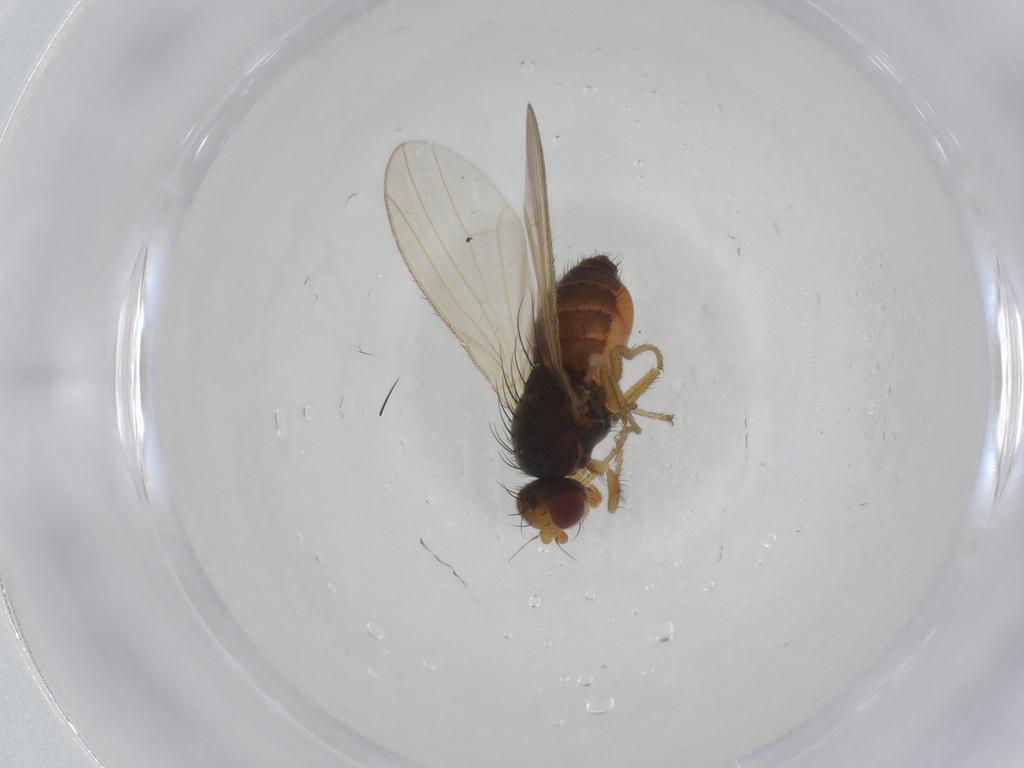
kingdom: Animalia
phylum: Arthropoda
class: Insecta
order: Diptera
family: Heleomyzidae
